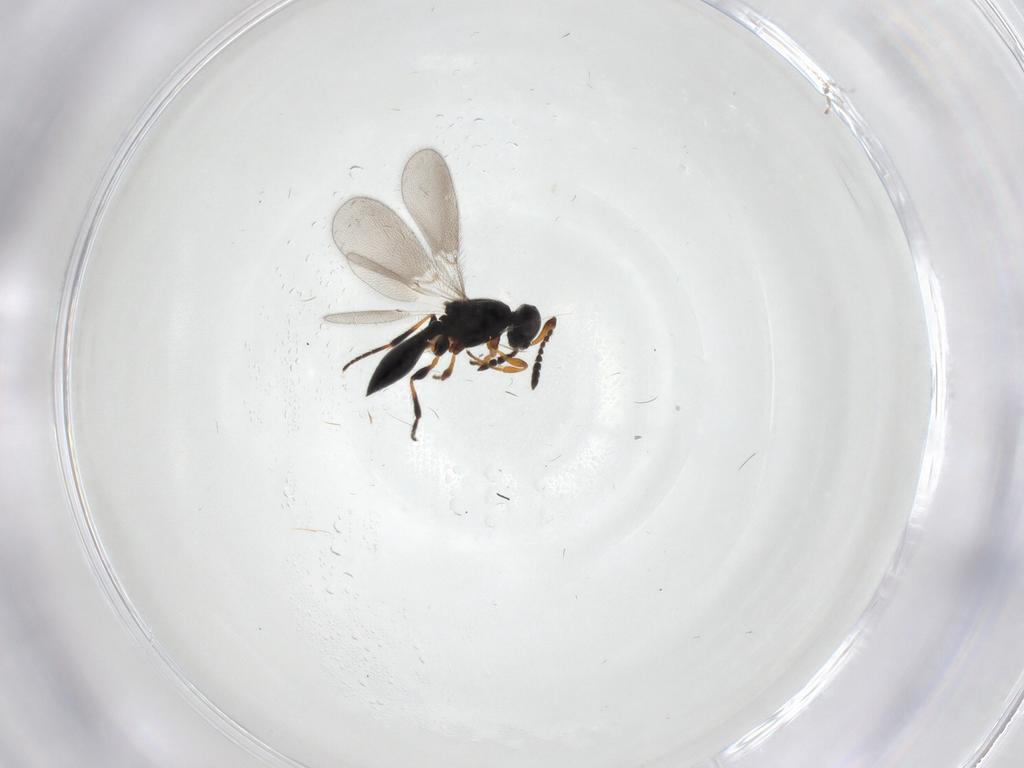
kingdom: Animalia
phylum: Arthropoda
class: Insecta
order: Hymenoptera
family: Platygastridae
